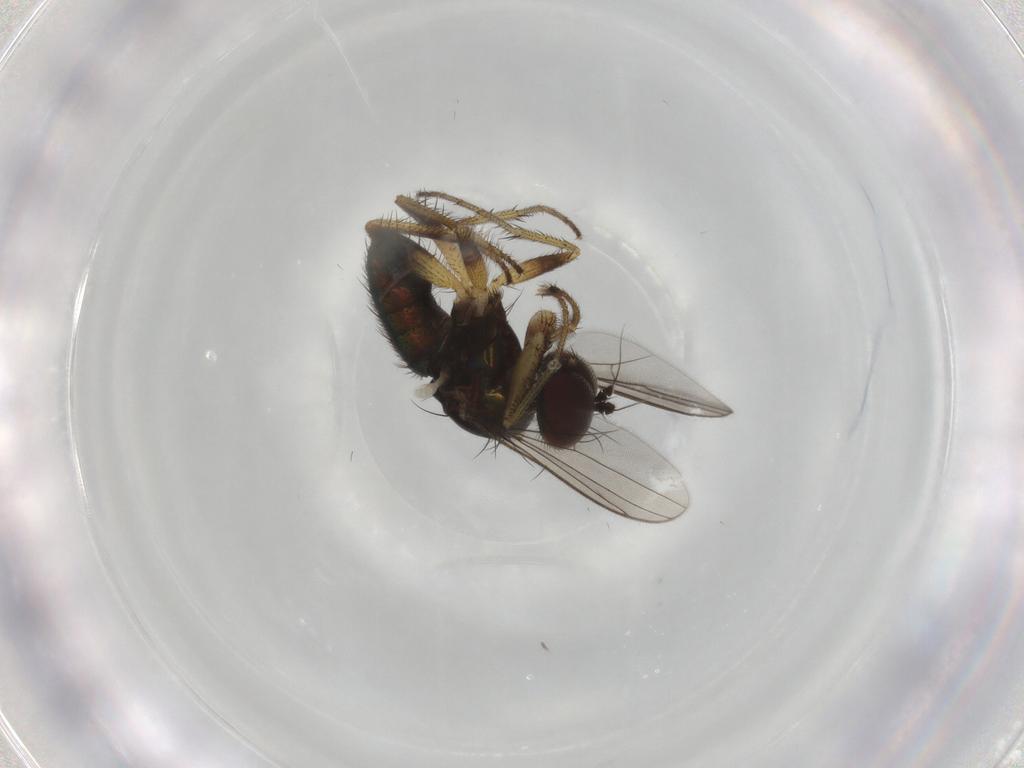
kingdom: Animalia
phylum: Arthropoda
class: Insecta
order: Diptera
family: Dolichopodidae
